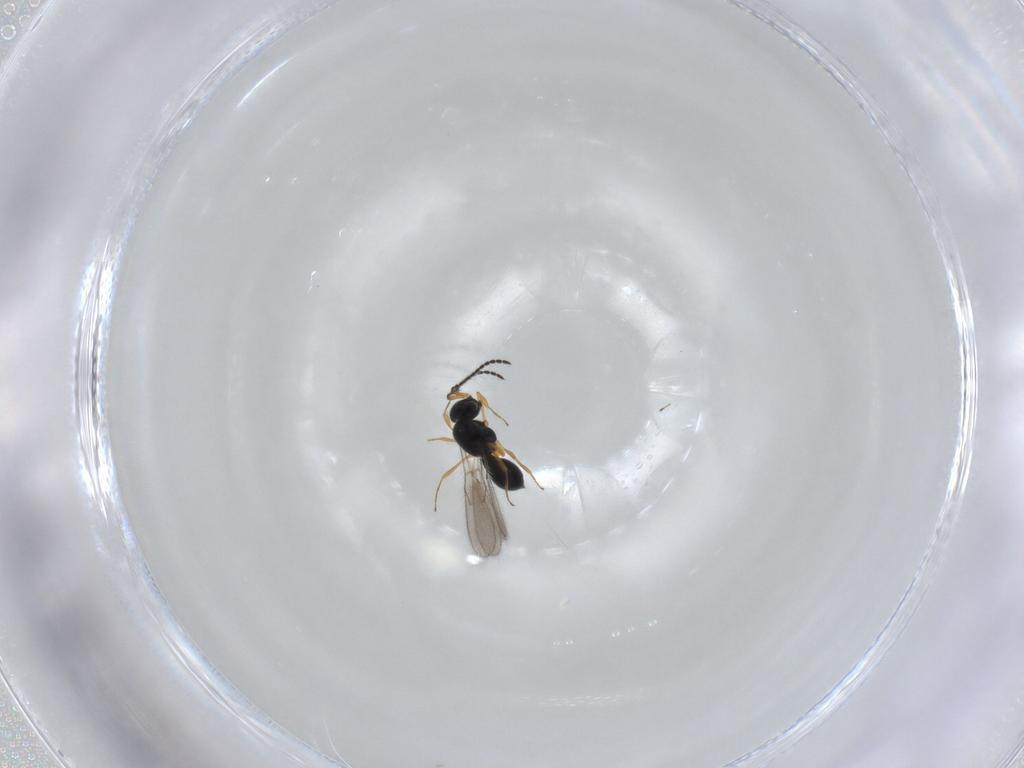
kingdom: Animalia
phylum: Arthropoda
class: Insecta
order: Hymenoptera
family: Scelionidae
